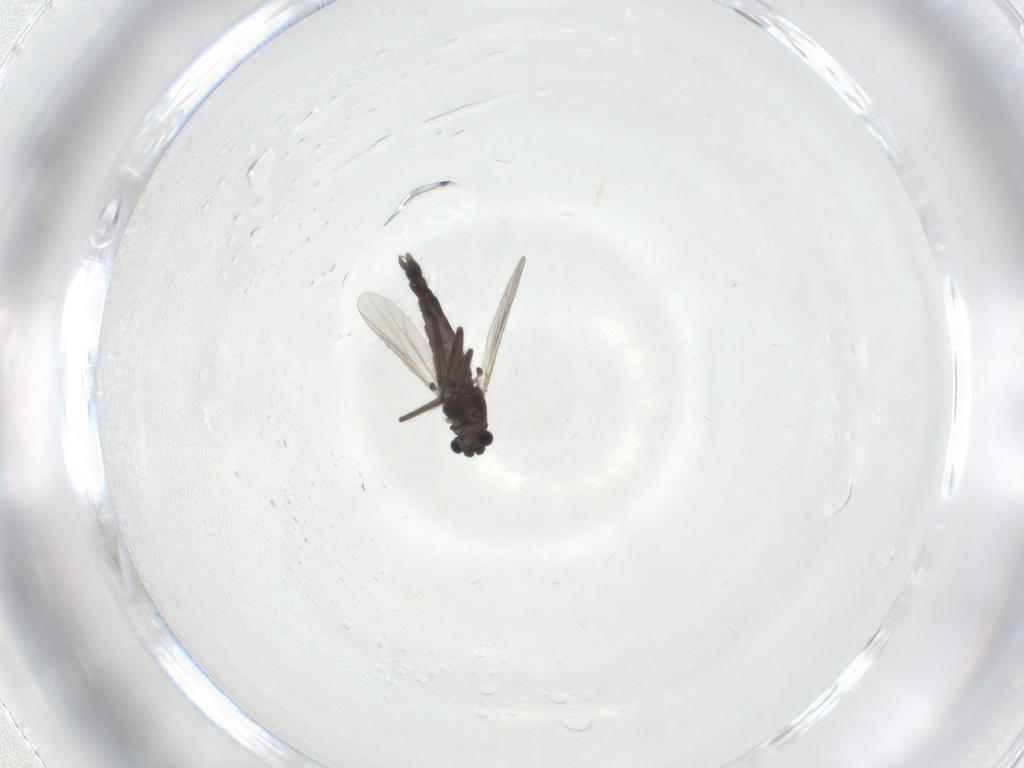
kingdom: Animalia
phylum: Arthropoda
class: Insecta
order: Diptera
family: Chironomidae
